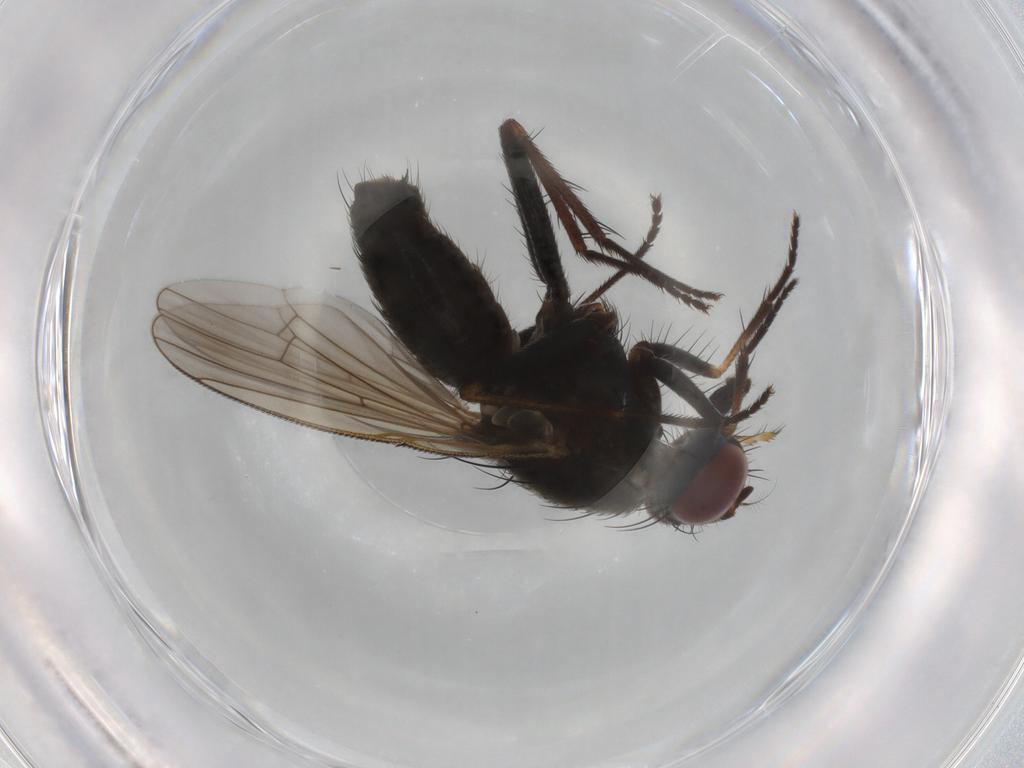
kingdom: Animalia
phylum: Arthropoda
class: Insecta
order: Diptera
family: Muscidae
